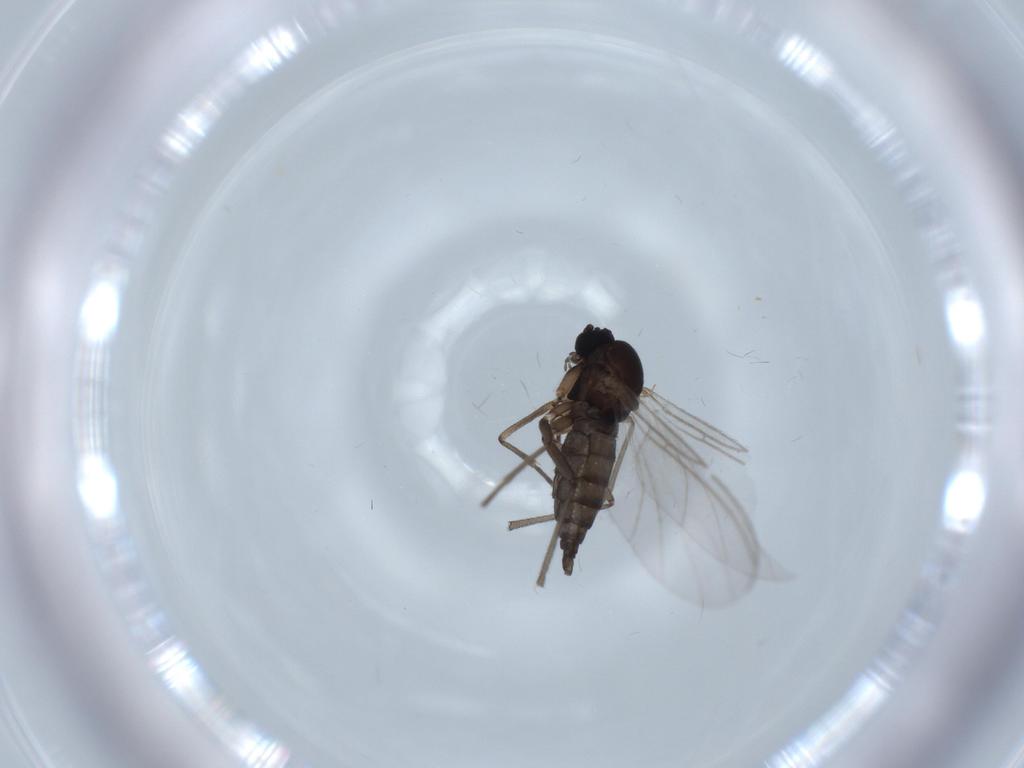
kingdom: Animalia
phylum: Arthropoda
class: Insecta
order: Diptera
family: Sciaridae
